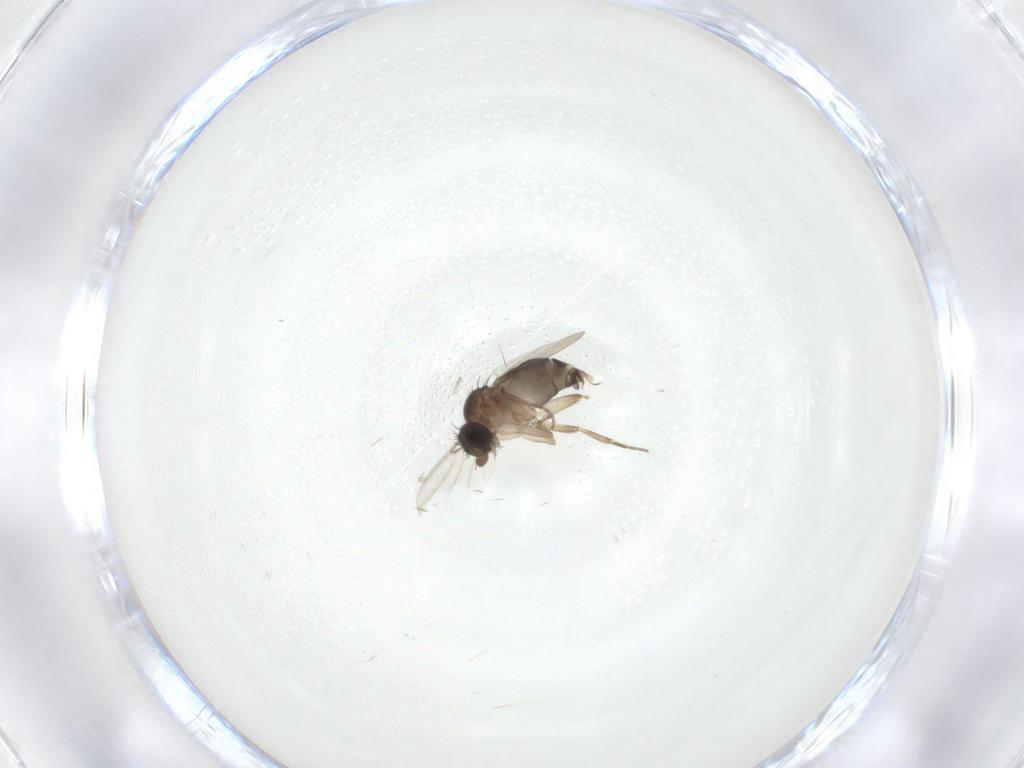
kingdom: Animalia
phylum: Arthropoda
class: Insecta
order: Diptera
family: Phoridae
